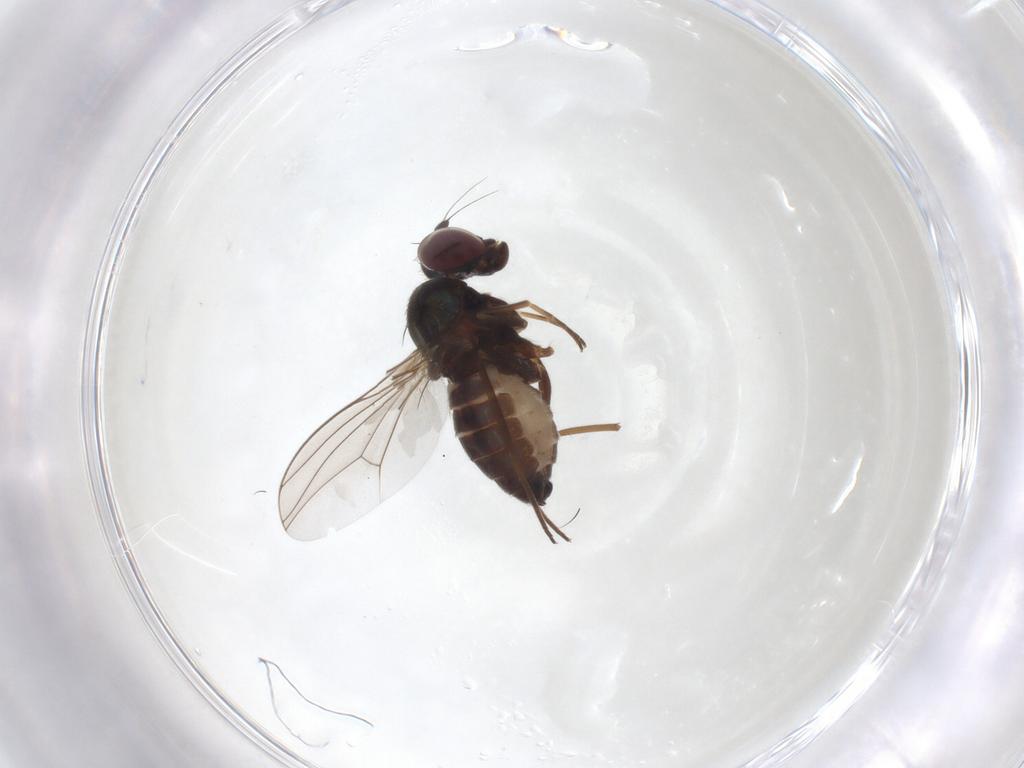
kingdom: Animalia
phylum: Arthropoda
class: Insecta
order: Diptera
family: Dolichopodidae
